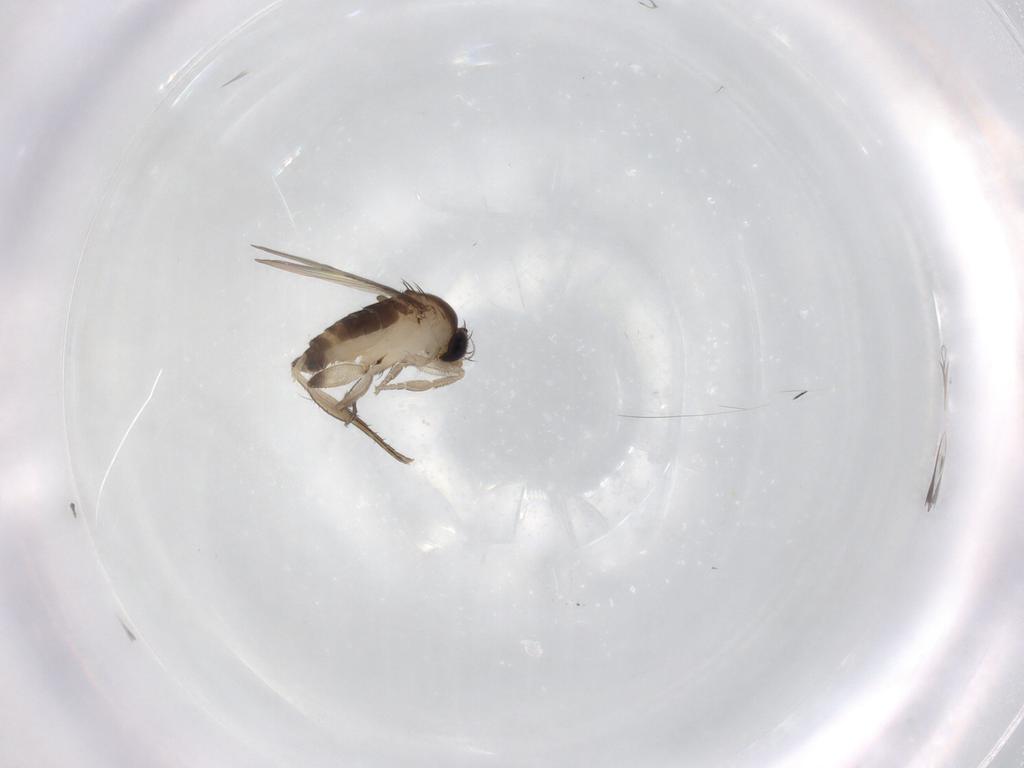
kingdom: Animalia
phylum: Arthropoda
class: Insecta
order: Diptera
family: Phoridae
